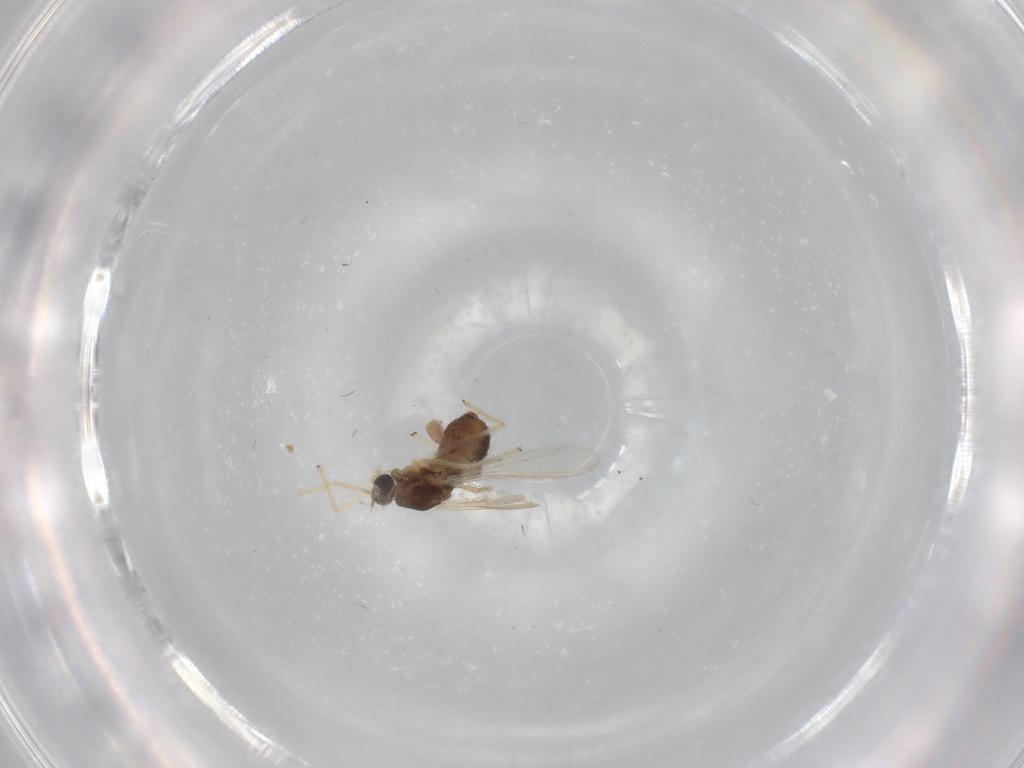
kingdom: Animalia
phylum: Arthropoda
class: Insecta
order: Diptera
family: Chironomidae
